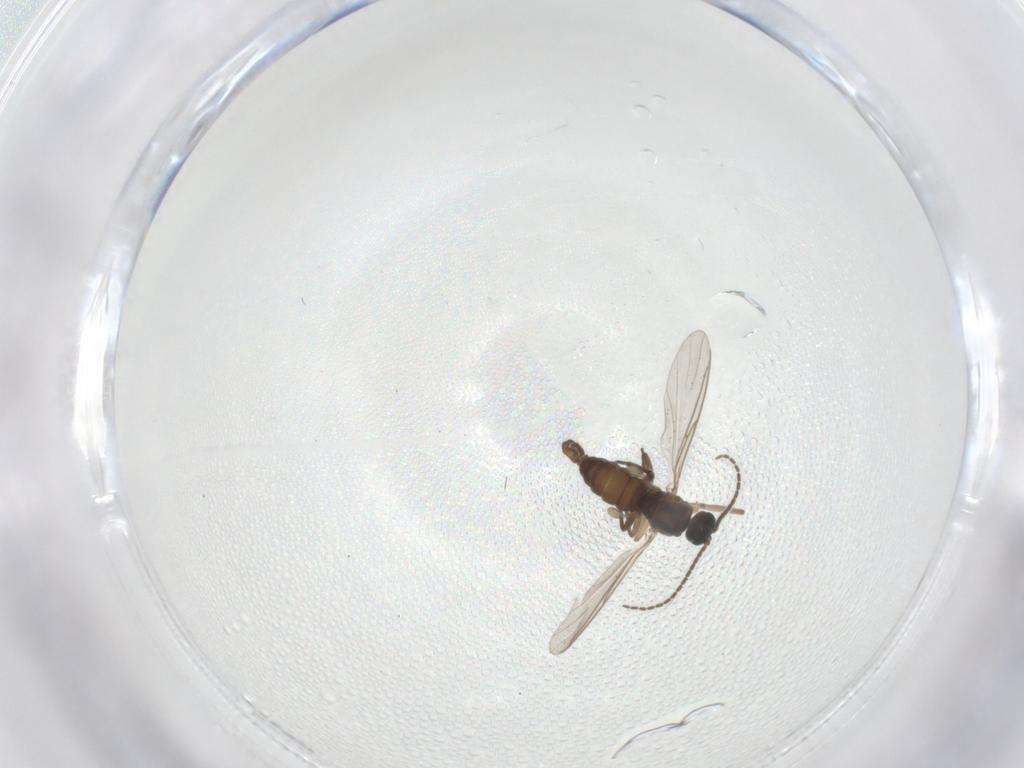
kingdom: Animalia
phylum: Arthropoda
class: Insecta
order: Diptera
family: Sciaridae
